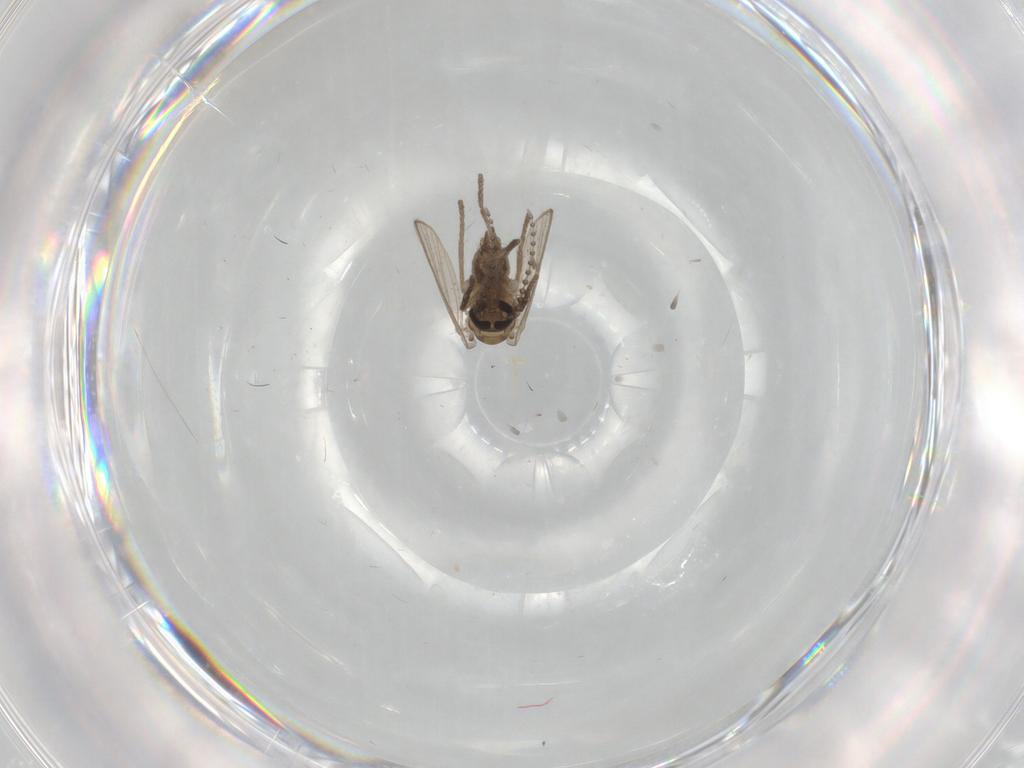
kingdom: Animalia
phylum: Arthropoda
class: Insecta
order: Diptera
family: Psychodidae
